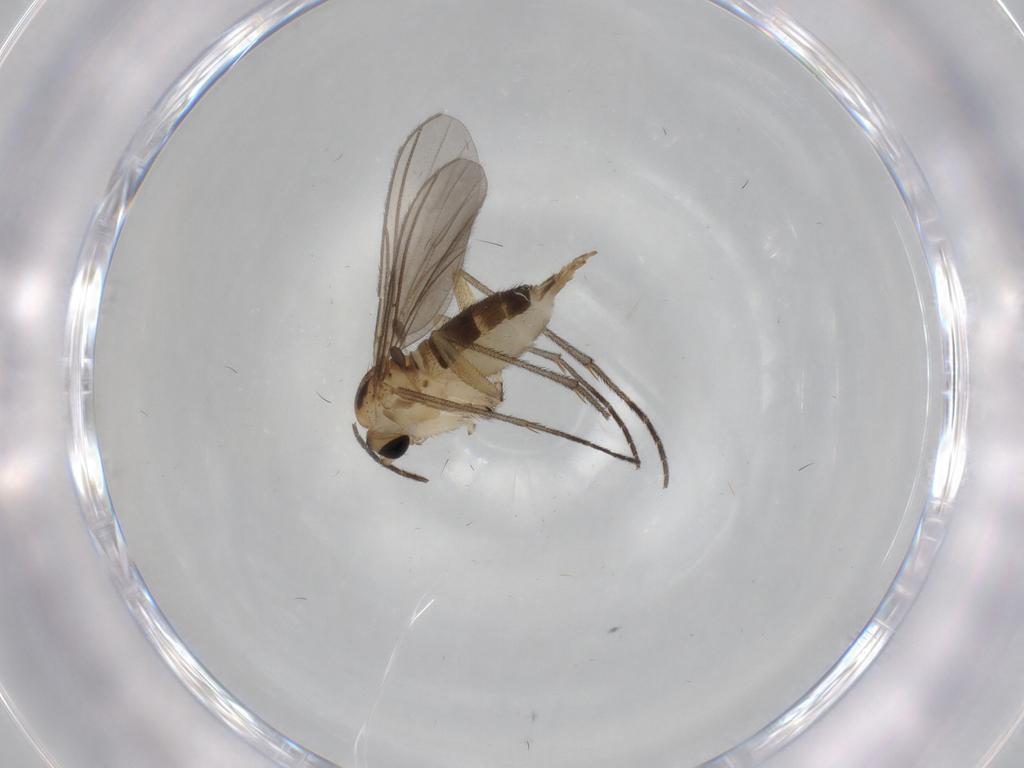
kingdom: Animalia
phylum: Arthropoda
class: Insecta
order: Diptera
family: Sciaridae
